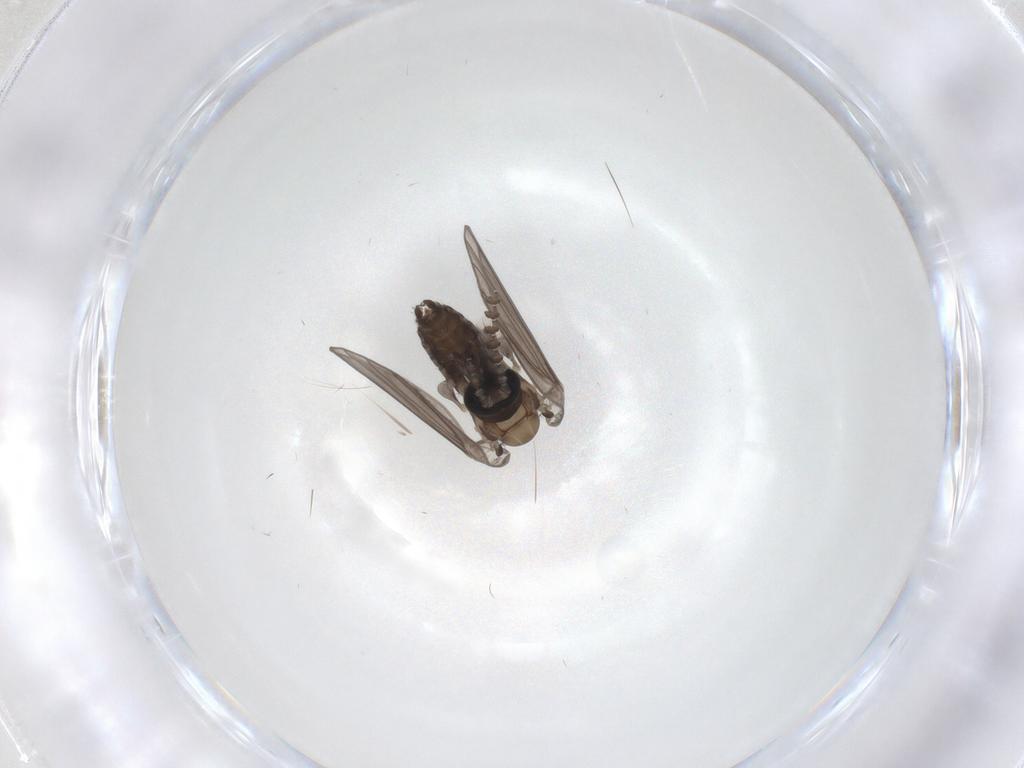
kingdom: Animalia
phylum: Arthropoda
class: Insecta
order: Diptera
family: Psychodidae
